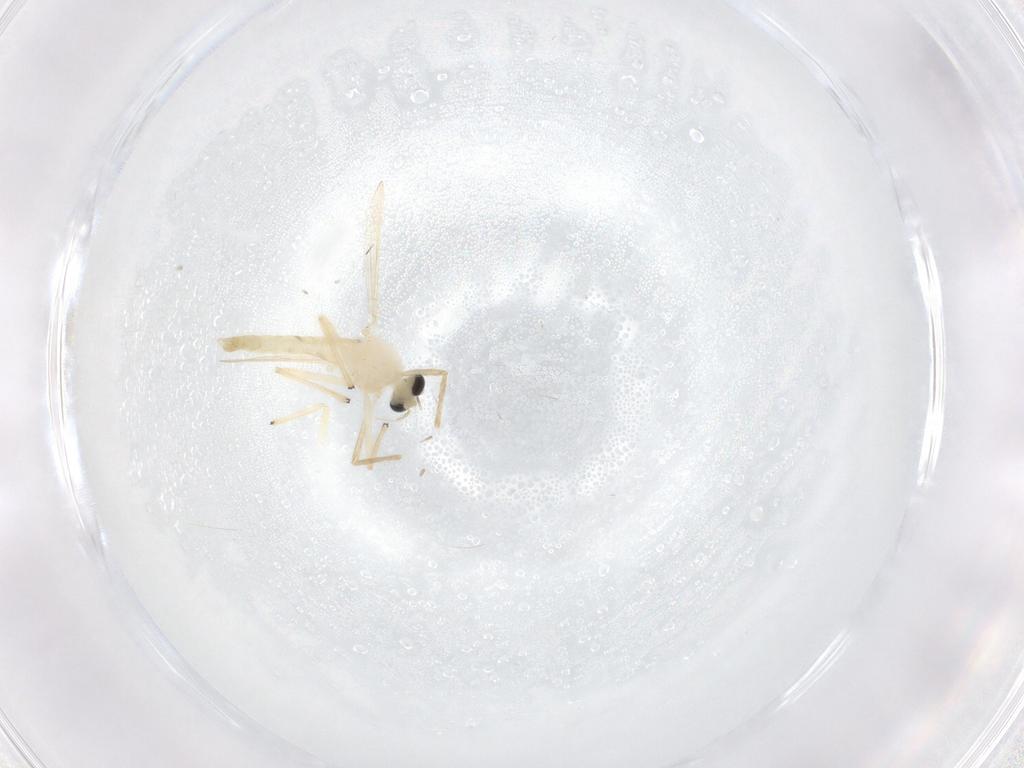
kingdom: Animalia
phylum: Arthropoda
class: Insecta
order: Diptera
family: Chironomidae
